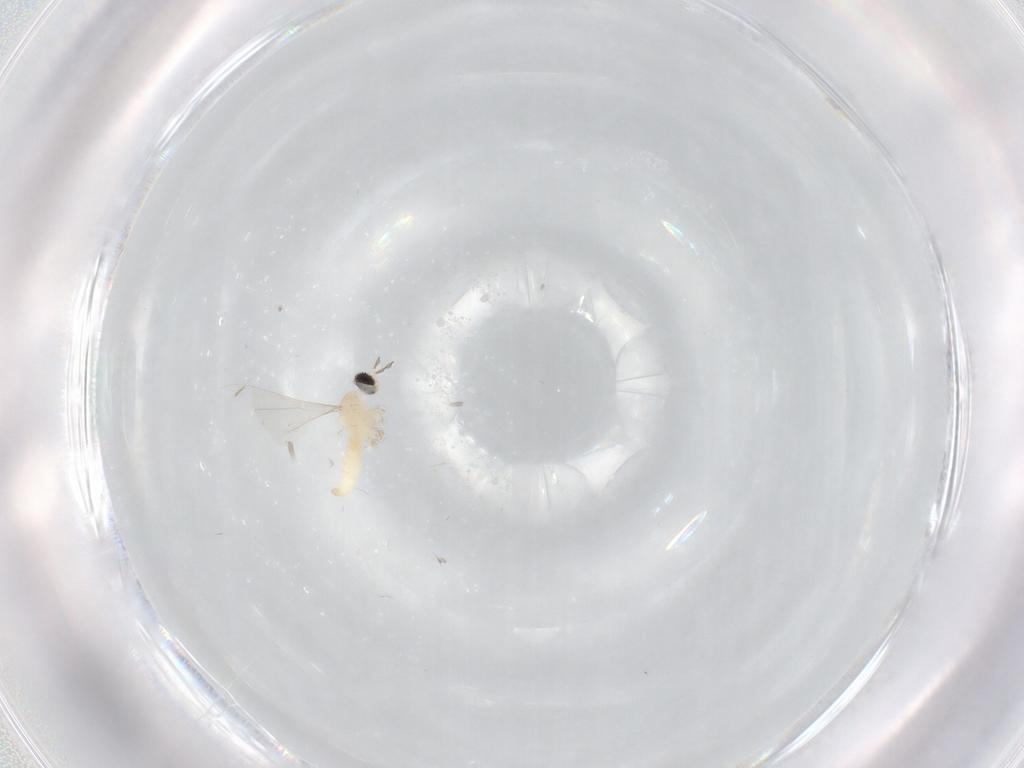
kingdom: Animalia
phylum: Arthropoda
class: Insecta
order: Diptera
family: Cecidomyiidae
